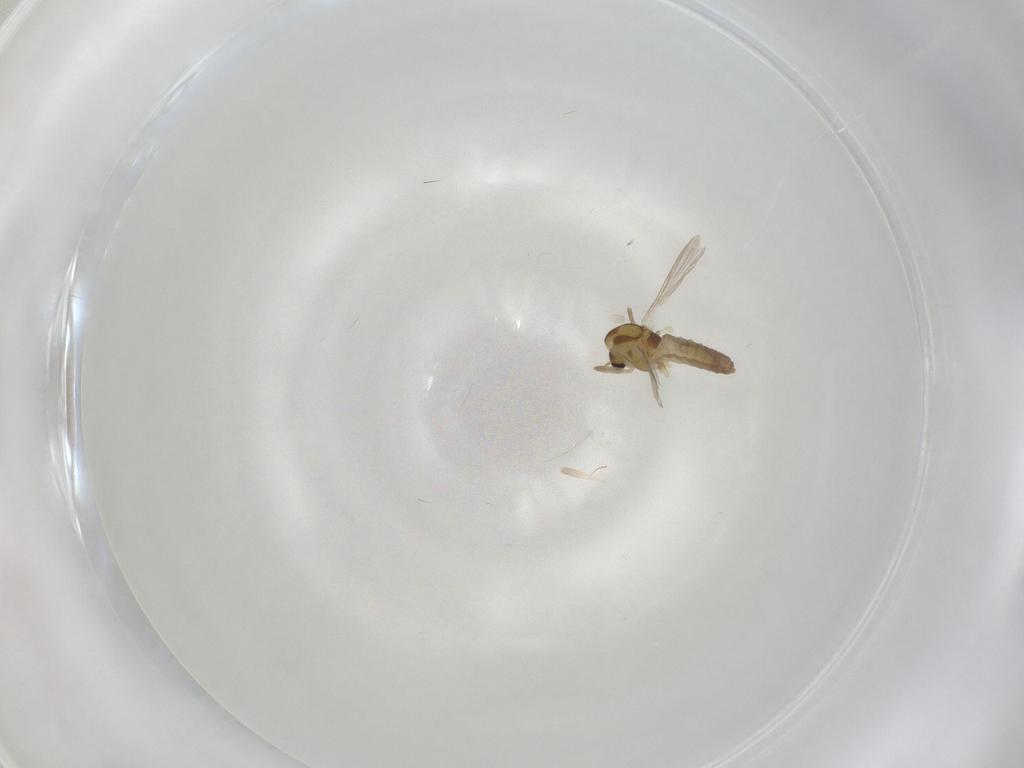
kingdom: Animalia
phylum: Arthropoda
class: Insecta
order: Diptera
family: Chironomidae
